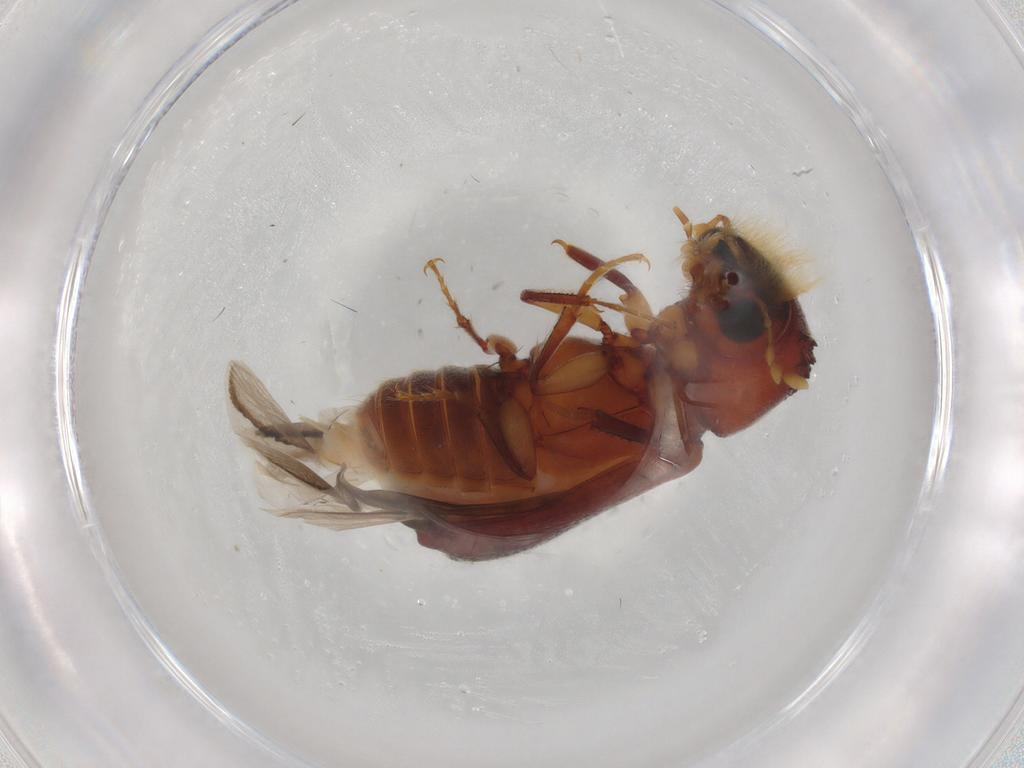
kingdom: Animalia
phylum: Arthropoda
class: Insecta
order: Coleoptera
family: Bostrichidae
